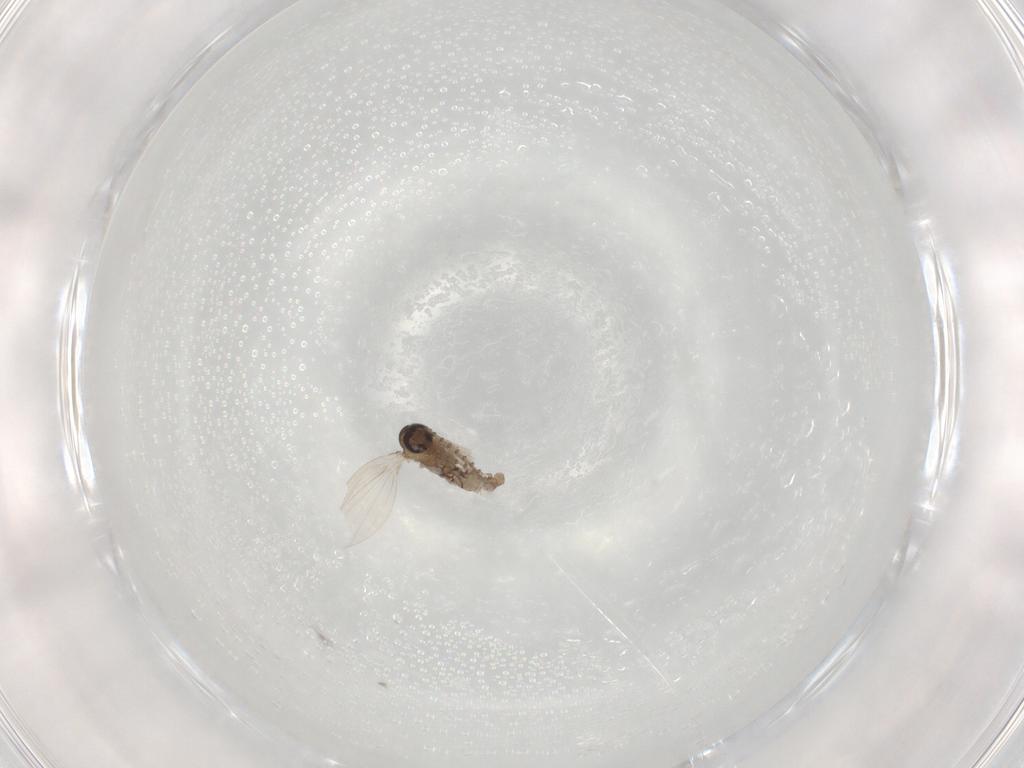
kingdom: Animalia
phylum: Arthropoda
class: Insecta
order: Diptera
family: Psychodidae
